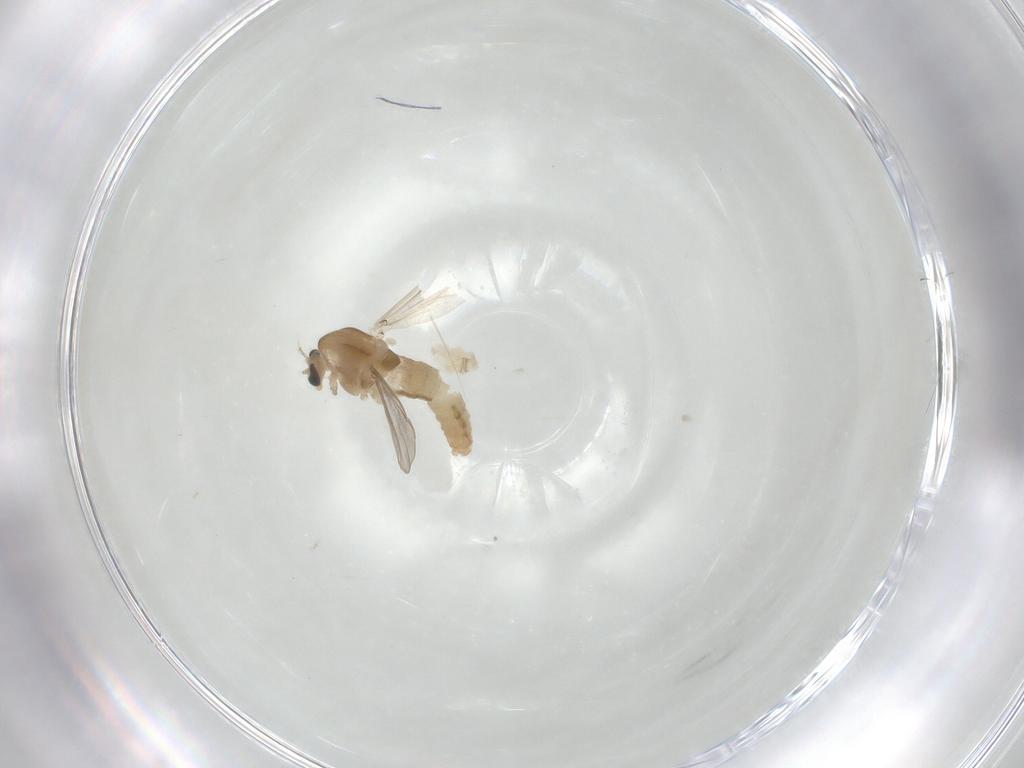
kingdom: Animalia
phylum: Arthropoda
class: Insecta
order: Diptera
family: Chironomidae
